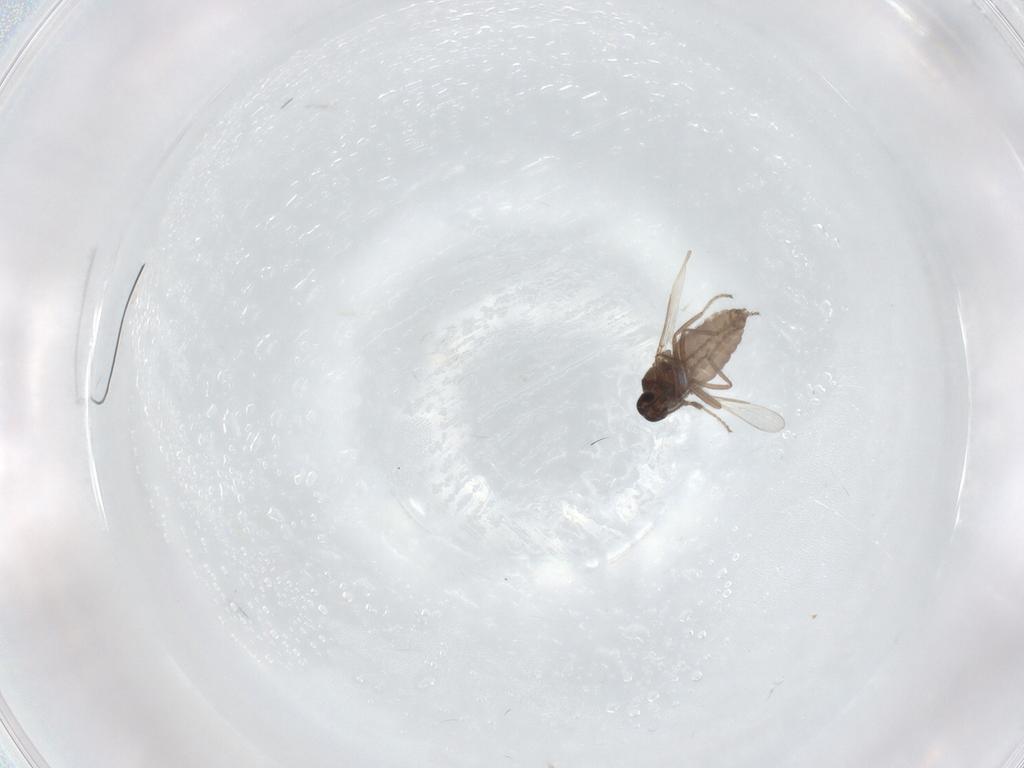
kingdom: Animalia
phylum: Arthropoda
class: Insecta
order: Diptera
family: Ceratopogonidae
